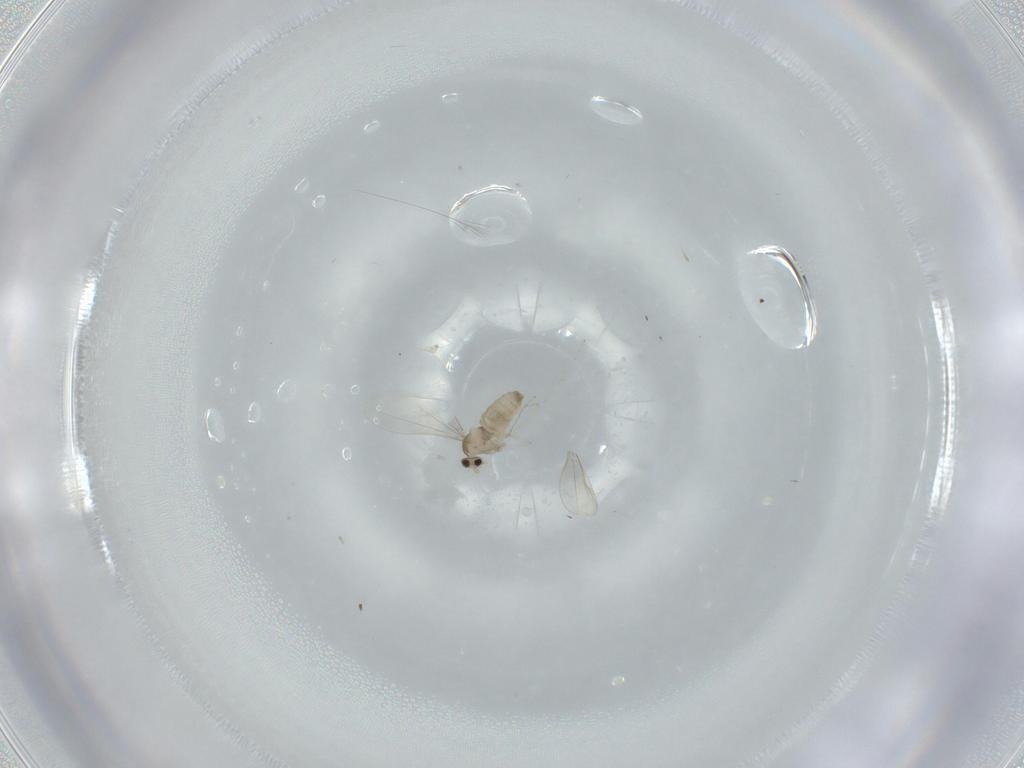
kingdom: Animalia
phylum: Arthropoda
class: Insecta
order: Diptera
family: Cecidomyiidae
